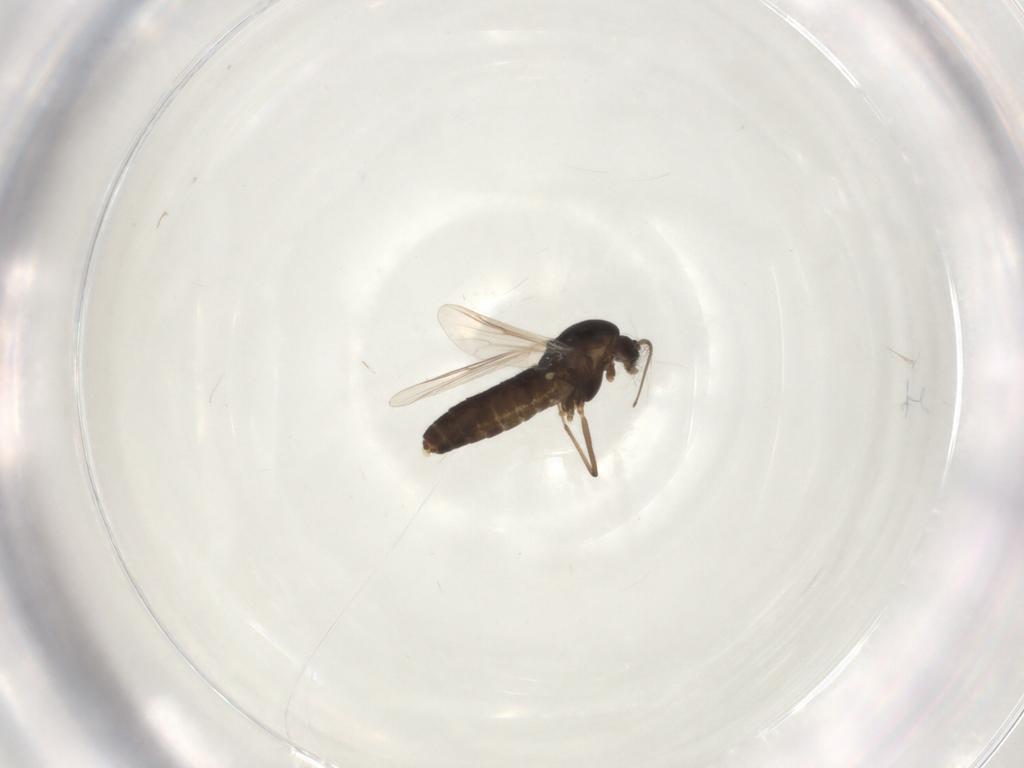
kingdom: Animalia
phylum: Arthropoda
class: Insecta
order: Diptera
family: Chironomidae
